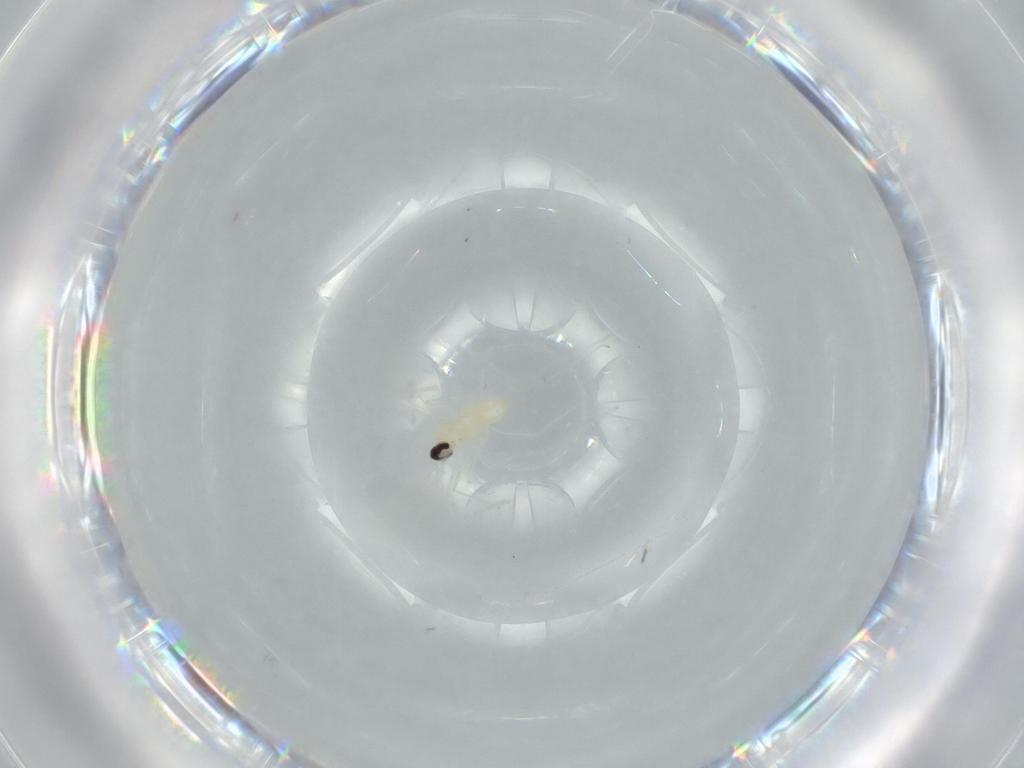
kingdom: Animalia
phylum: Arthropoda
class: Insecta
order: Diptera
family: Cecidomyiidae
